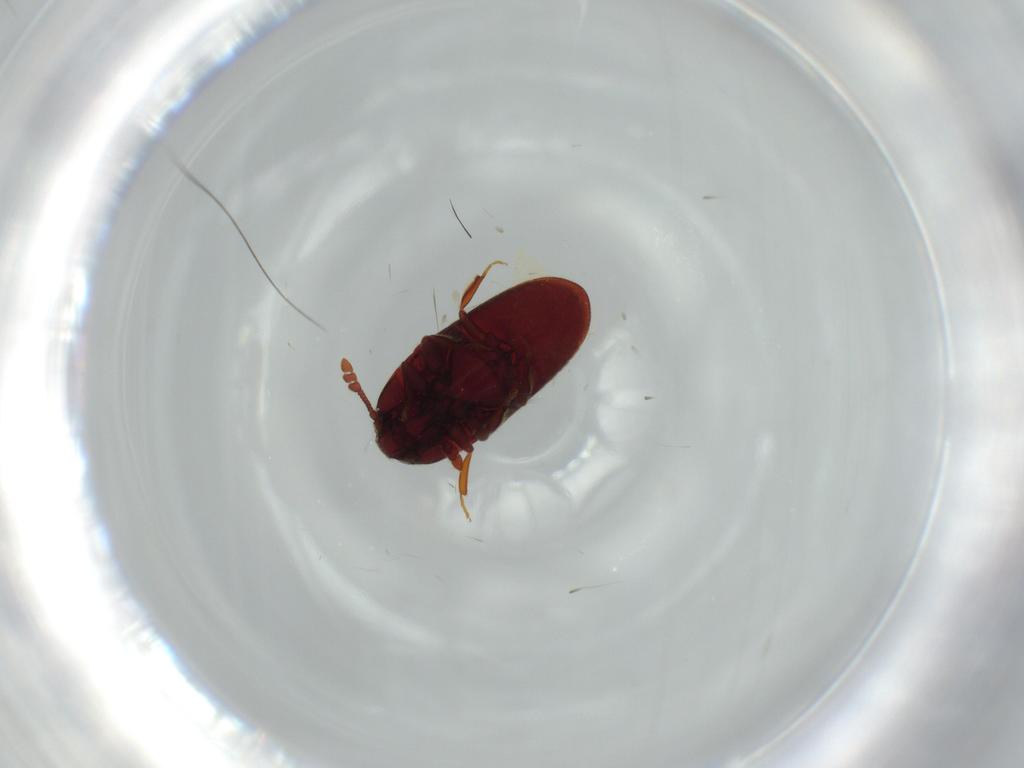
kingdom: Animalia
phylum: Arthropoda
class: Insecta
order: Coleoptera
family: Throscidae
